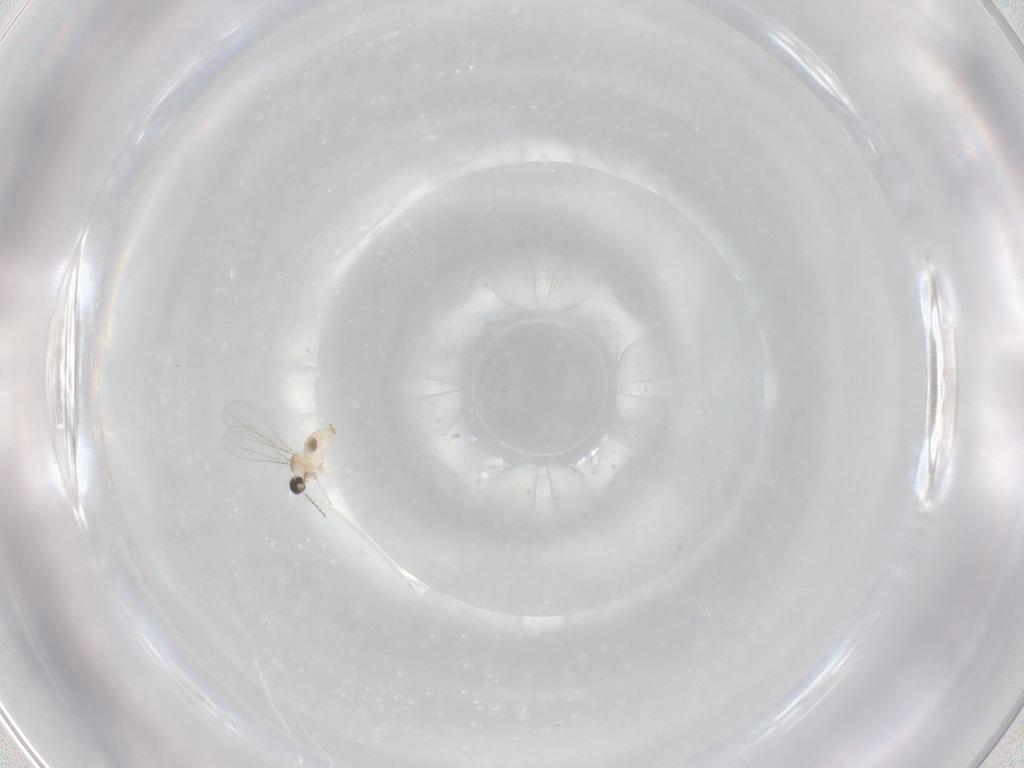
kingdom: Animalia
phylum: Arthropoda
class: Insecta
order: Diptera
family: Cecidomyiidae
